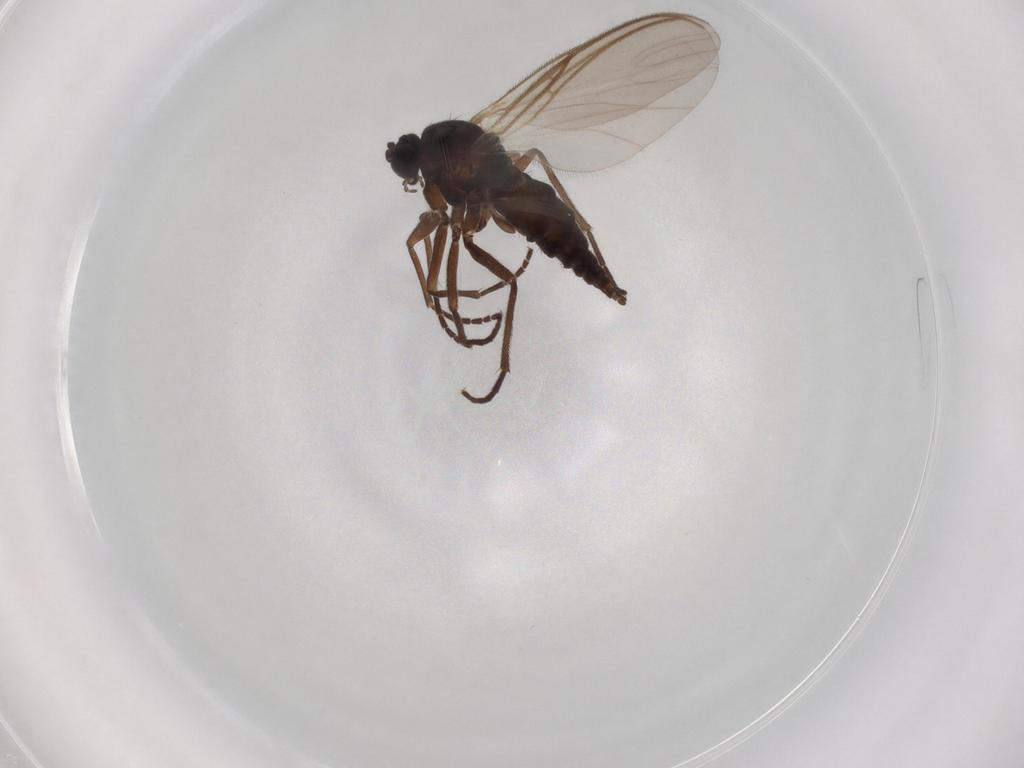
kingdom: Animalia
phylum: Arthropoda
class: Insecta
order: Diptera
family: Sciaridae
